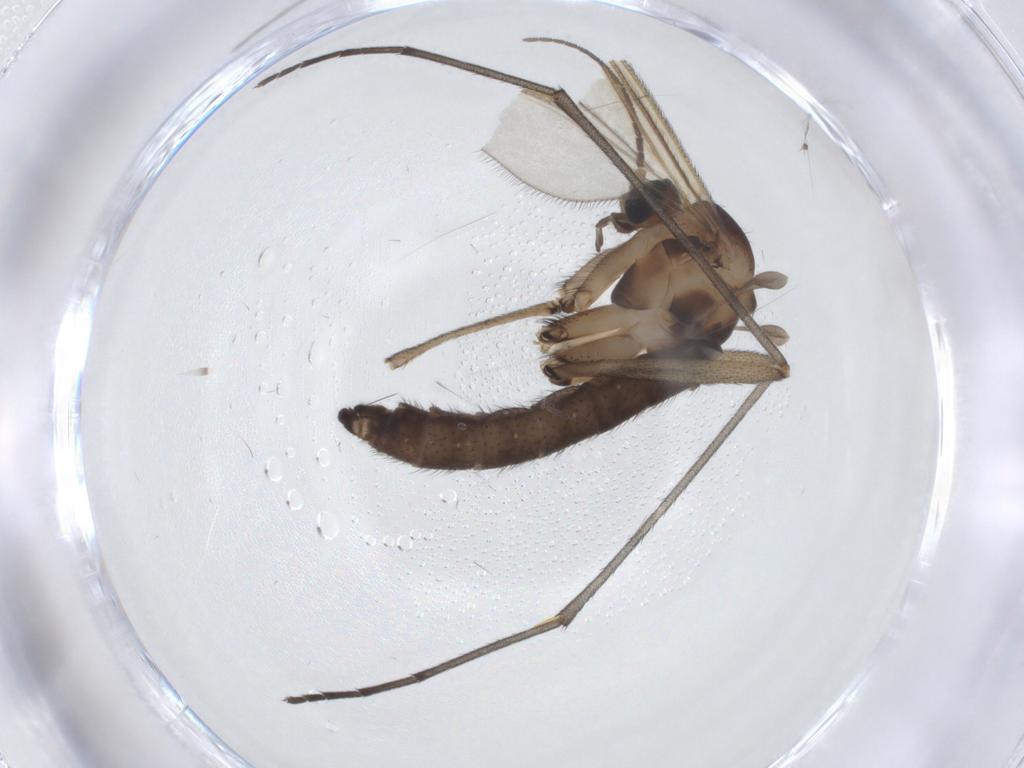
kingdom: Animalia
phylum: Arthropoda
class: Insecta
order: Diptera
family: Sciaridae
